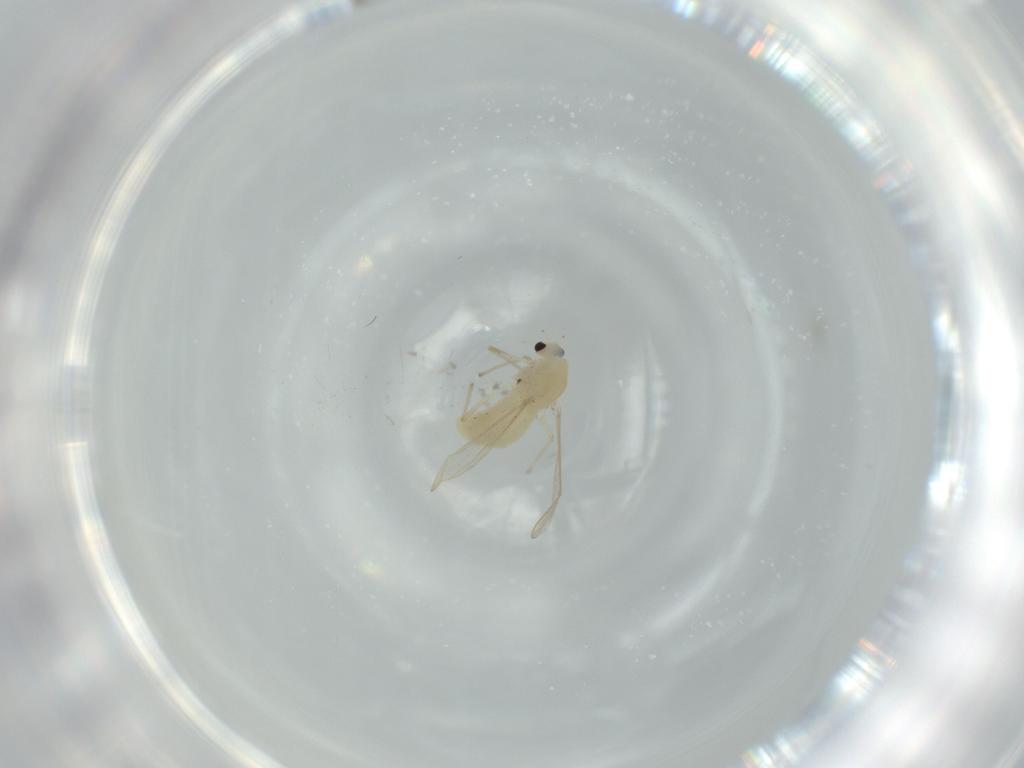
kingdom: Animalia
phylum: Arthropoda
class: Insecta
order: Diptera
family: Chironomidae
